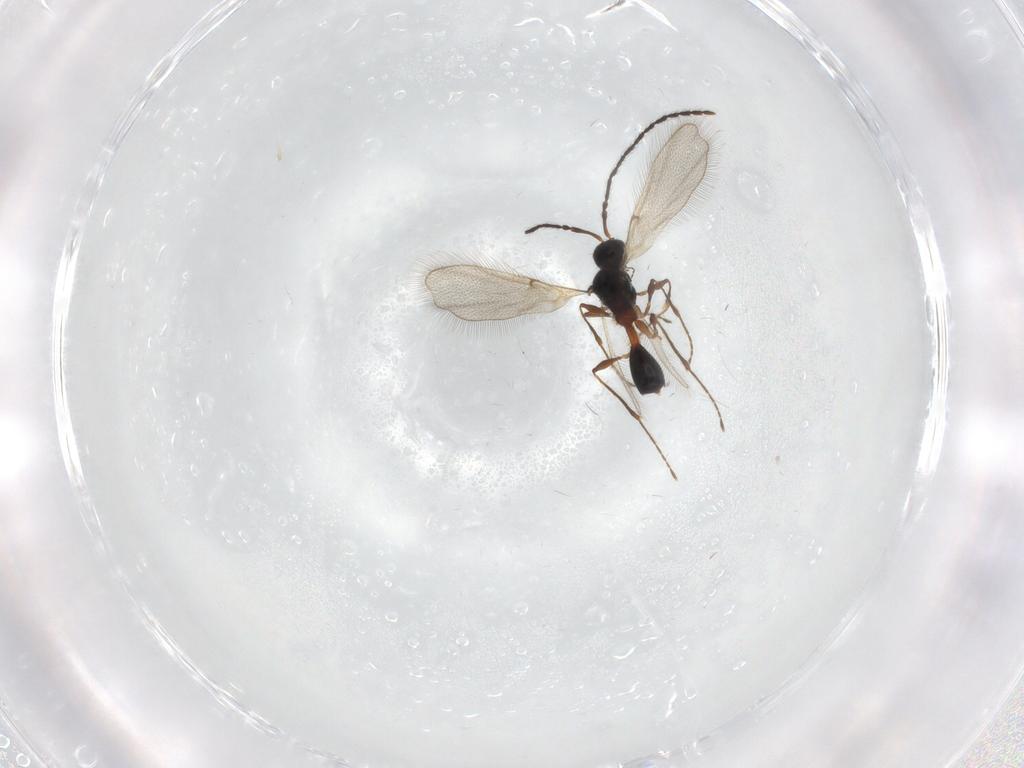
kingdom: Animalia
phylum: Arthropoda
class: Insecta
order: Hymenoptera
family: Diapriidae
